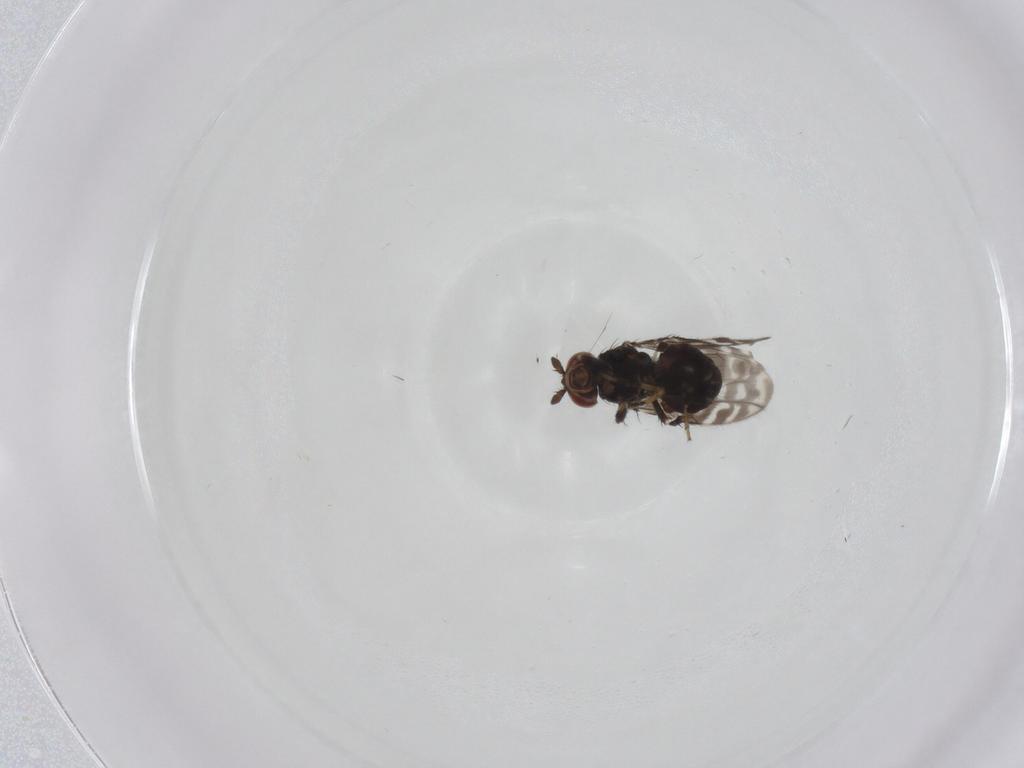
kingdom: Animalia
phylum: Arthropoda
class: Insecta
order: Diptera
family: Sphaeroceridae
